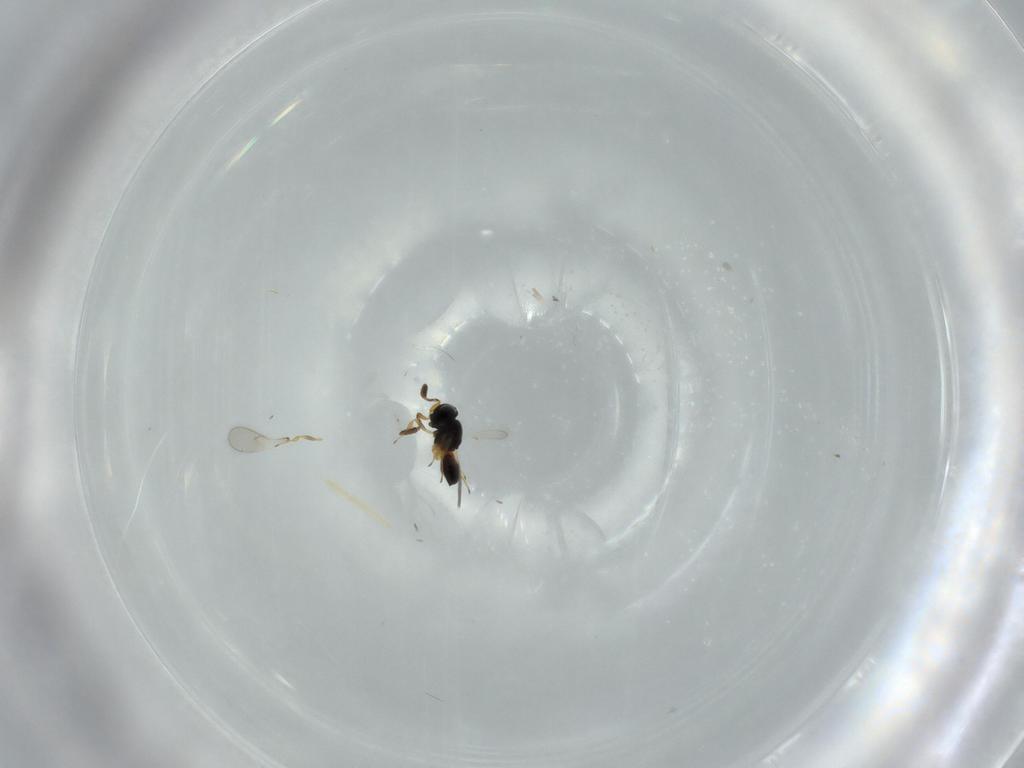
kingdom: Animalia
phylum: Arthropoda
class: Insecta
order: Hymenoptera
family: Scelionidae
